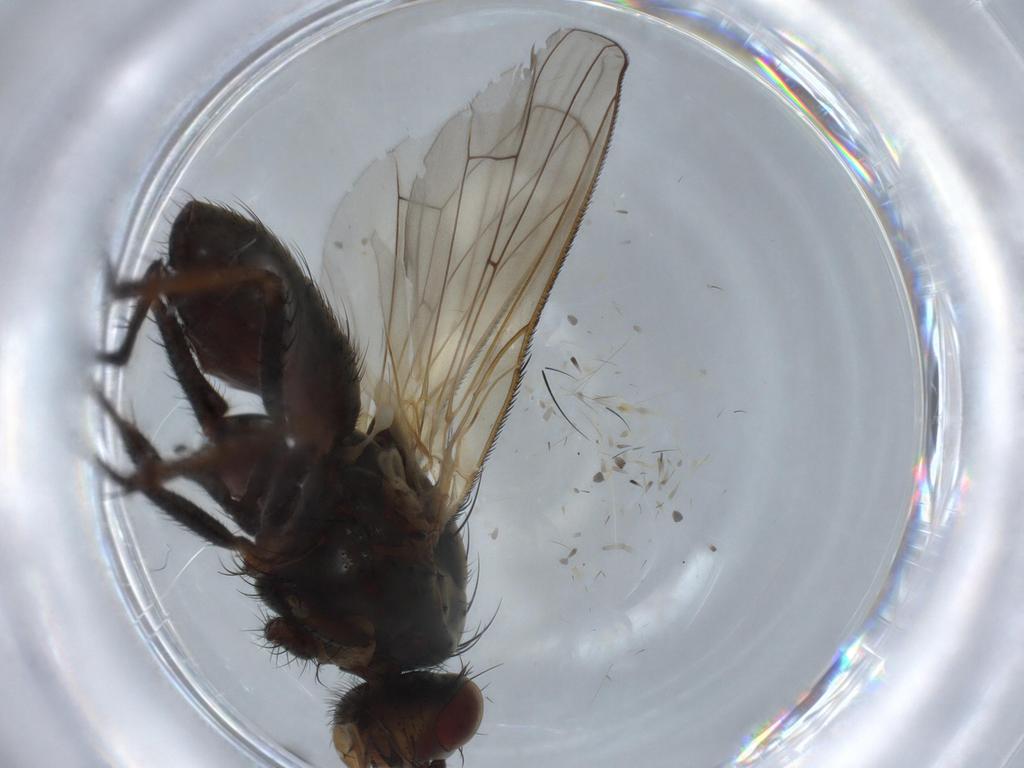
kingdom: Animalia
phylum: Arthropoda
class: Insecta
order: Diptera
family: Anthomyiidae
